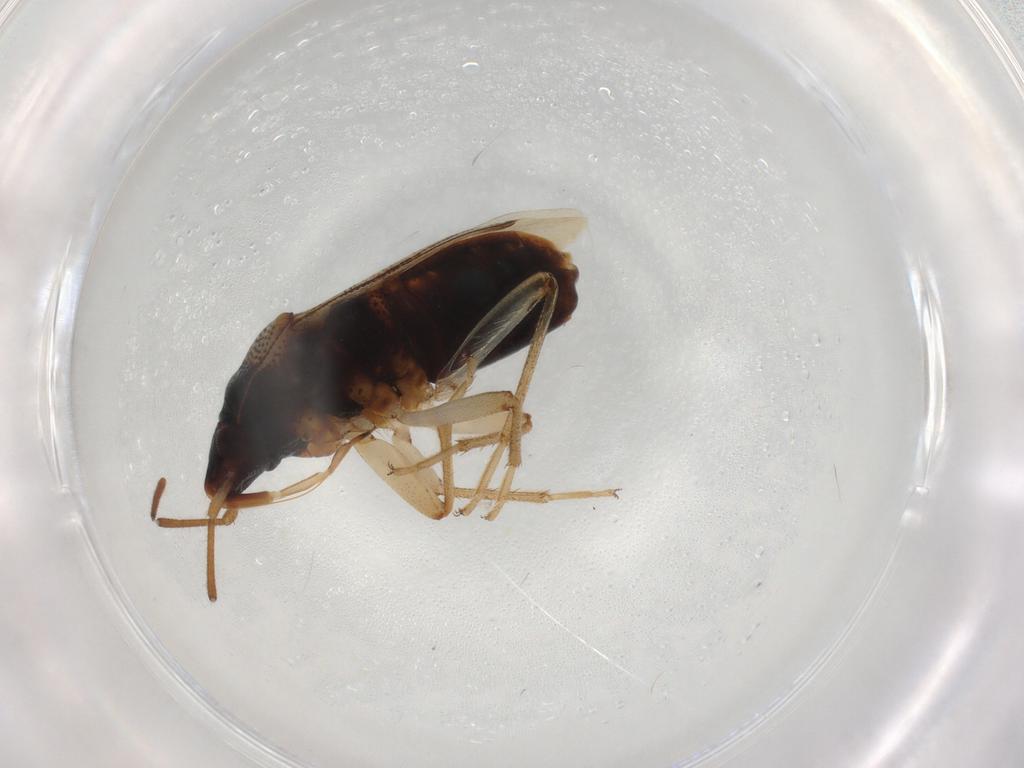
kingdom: Animalia
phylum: Arthropoda
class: Insecta
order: Hemiptera
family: Rhyparochromidae
